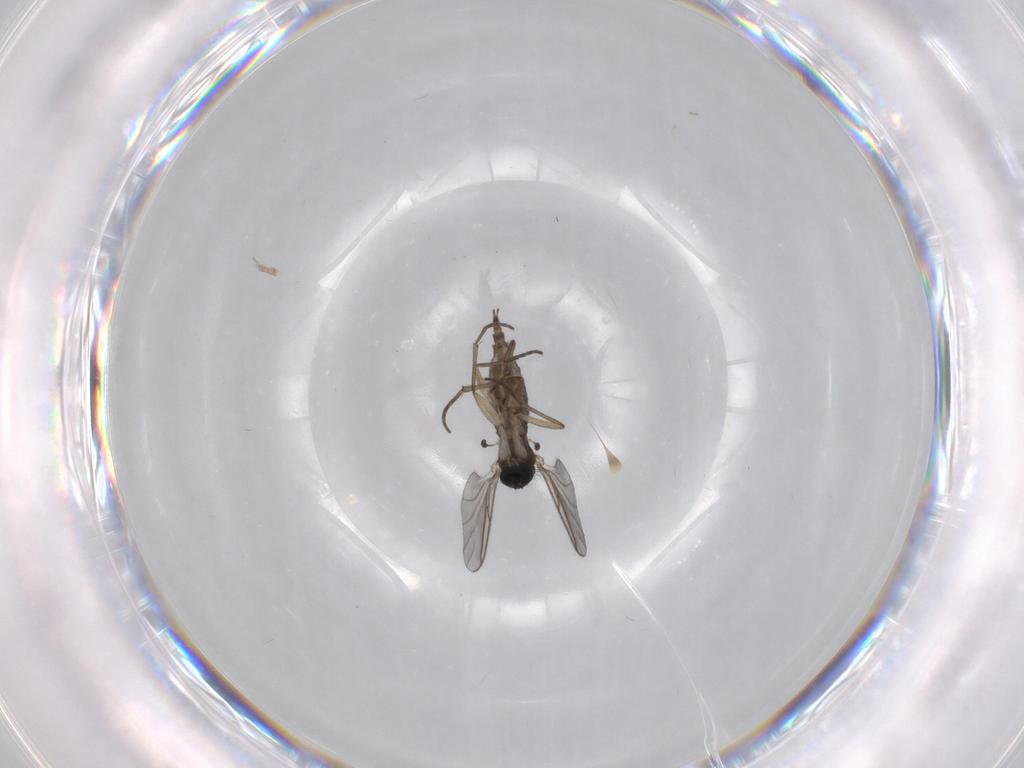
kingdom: Animalia
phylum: Arthropoda
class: Insecta
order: Diptera
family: Sciaridae
